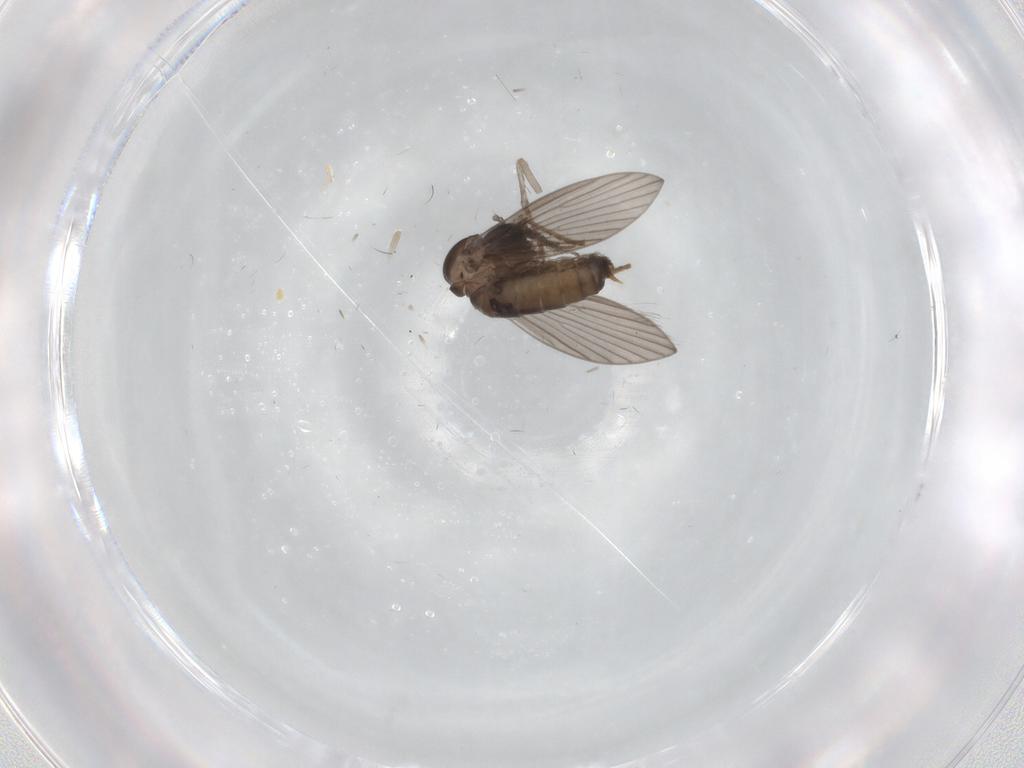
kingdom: Animalia
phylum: Arthropoda
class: Insecta
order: Diptera
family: Psychodidae
